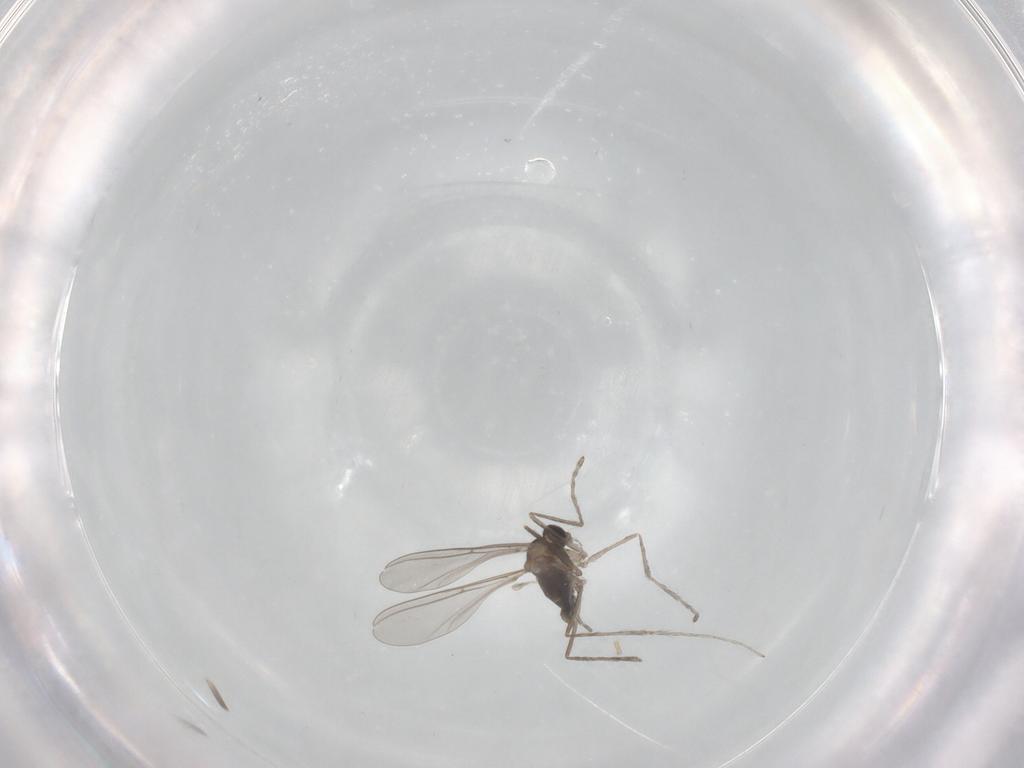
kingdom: Animalia
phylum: Arthropoda
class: Insecta
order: Diptera
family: Cecidomyiidae
